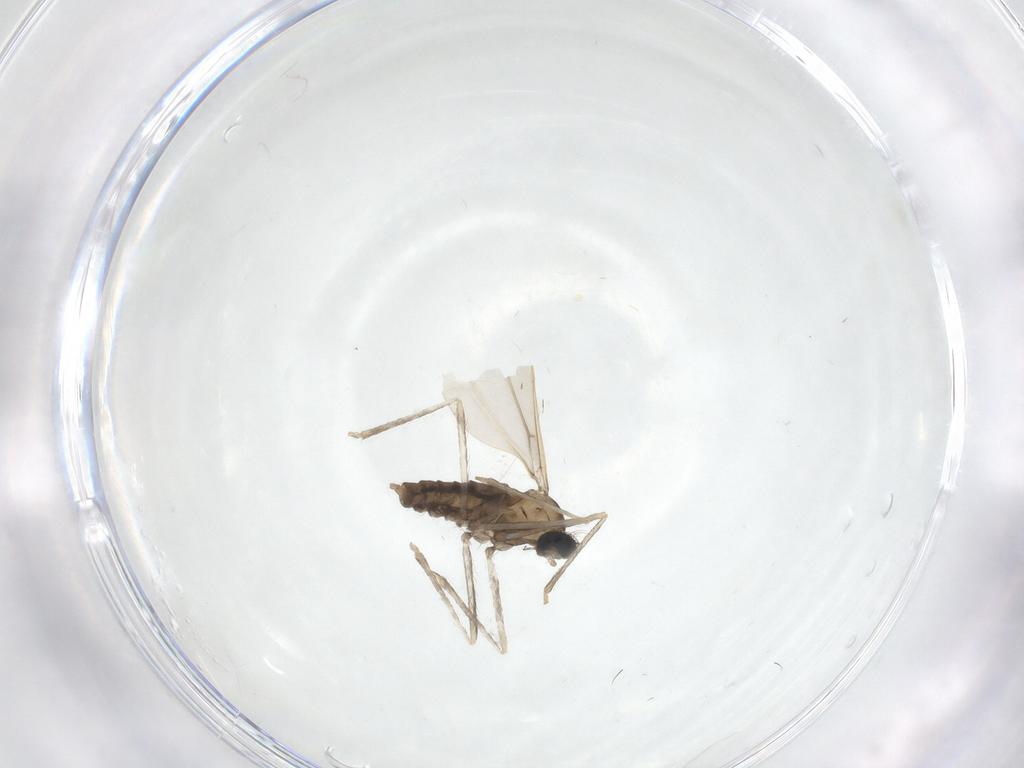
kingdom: Animalia
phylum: Arthropoda
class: Insecta
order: Diptera
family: Cecidomyiidae
